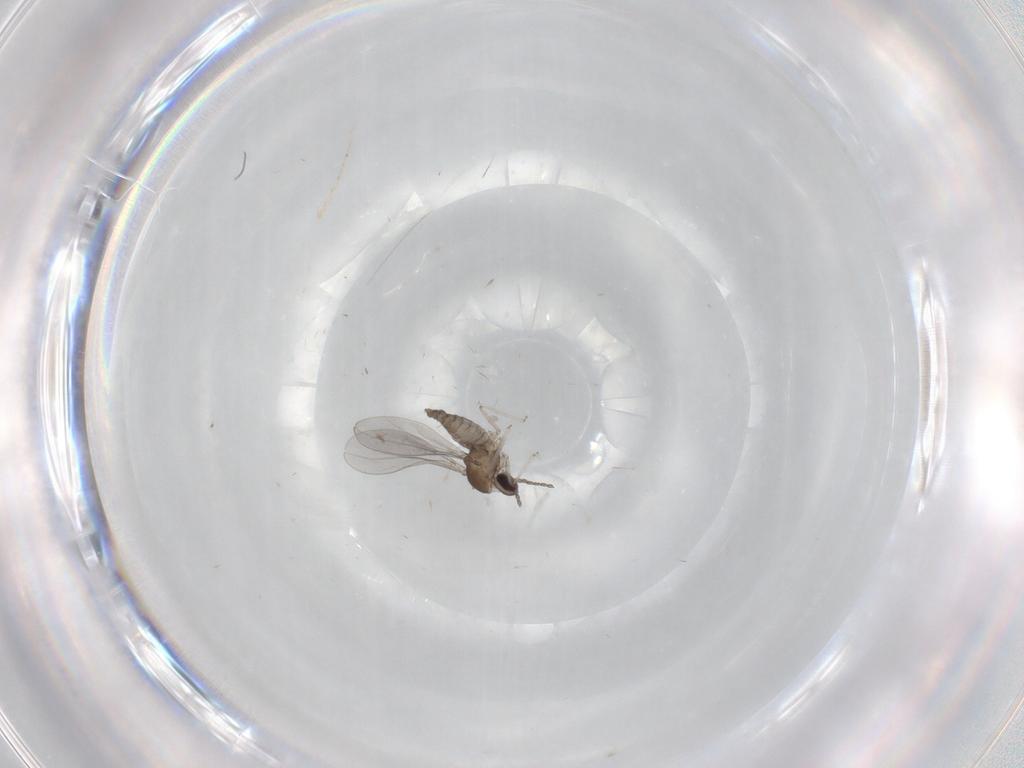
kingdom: Animalia
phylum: Arthropoda
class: Insecta
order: Diptera
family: Cecidomyiidae
